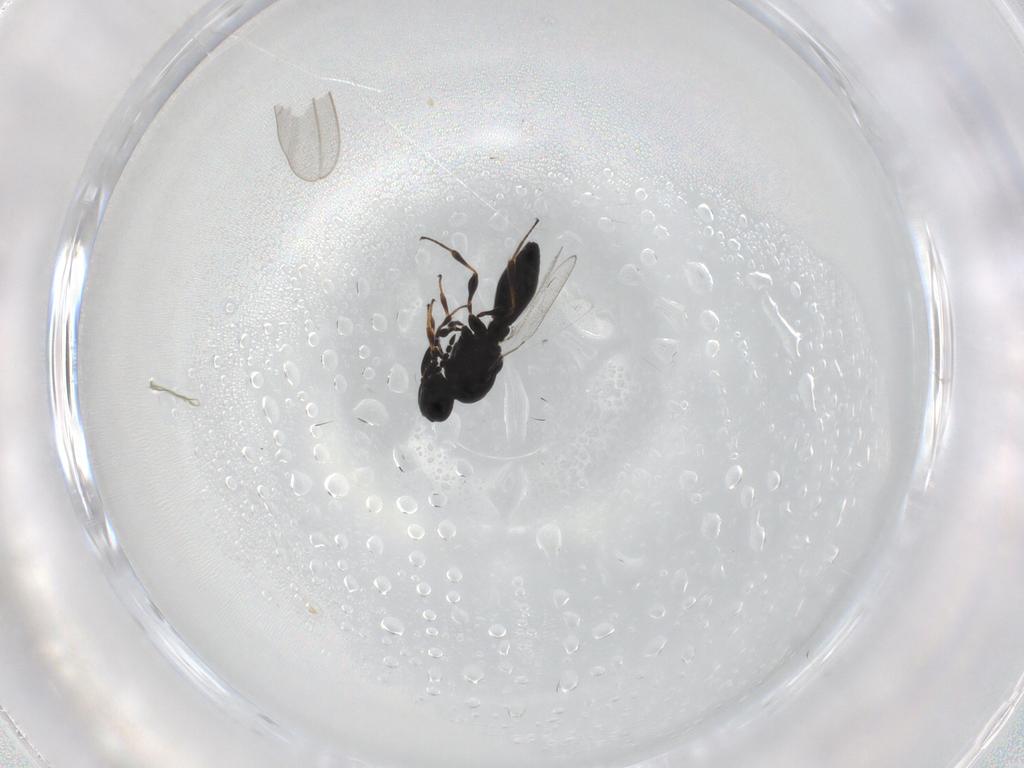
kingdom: Animalia
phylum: Arthropoda
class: Insecta
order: Hymenoptera
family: Platygastridae
